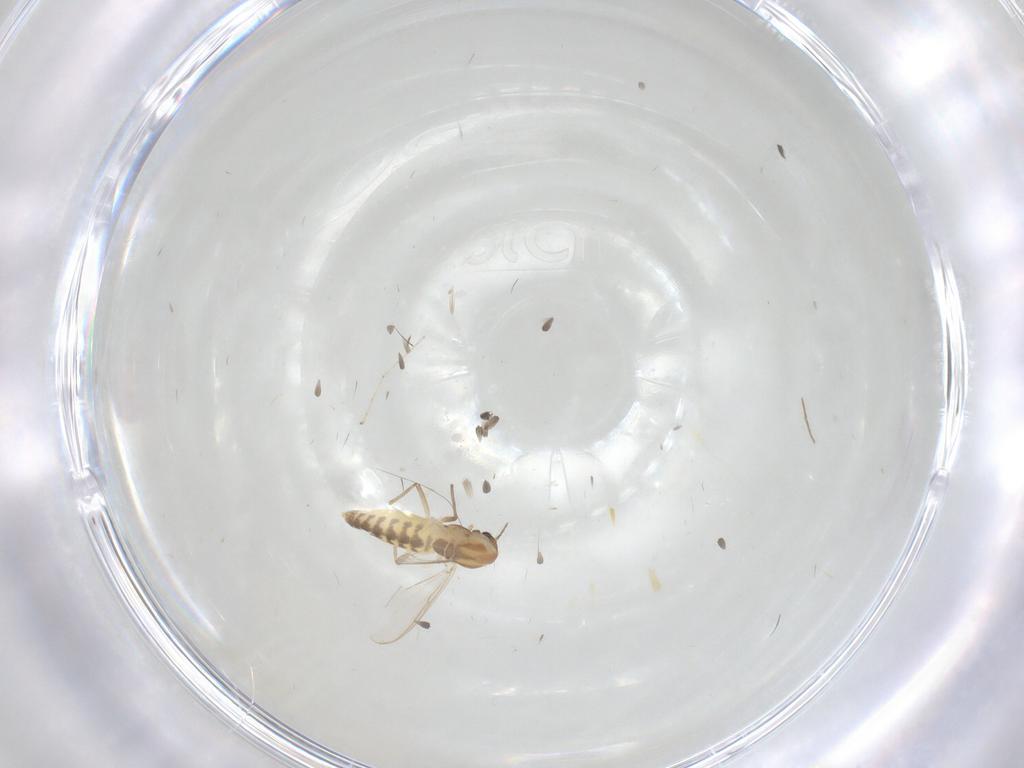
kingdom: Animalia
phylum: Arthropoda
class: Insecta
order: Diptera
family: Chironomidae
